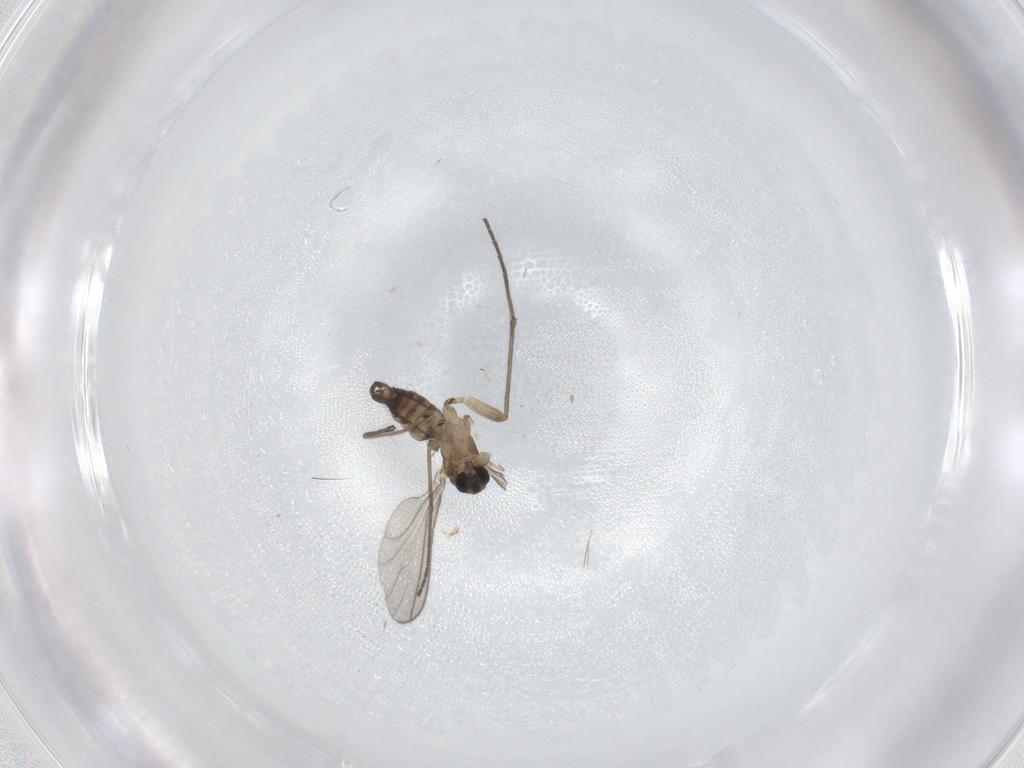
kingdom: Animalia
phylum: Arthropoda
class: Insecta
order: Diptera
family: Sciaridae
